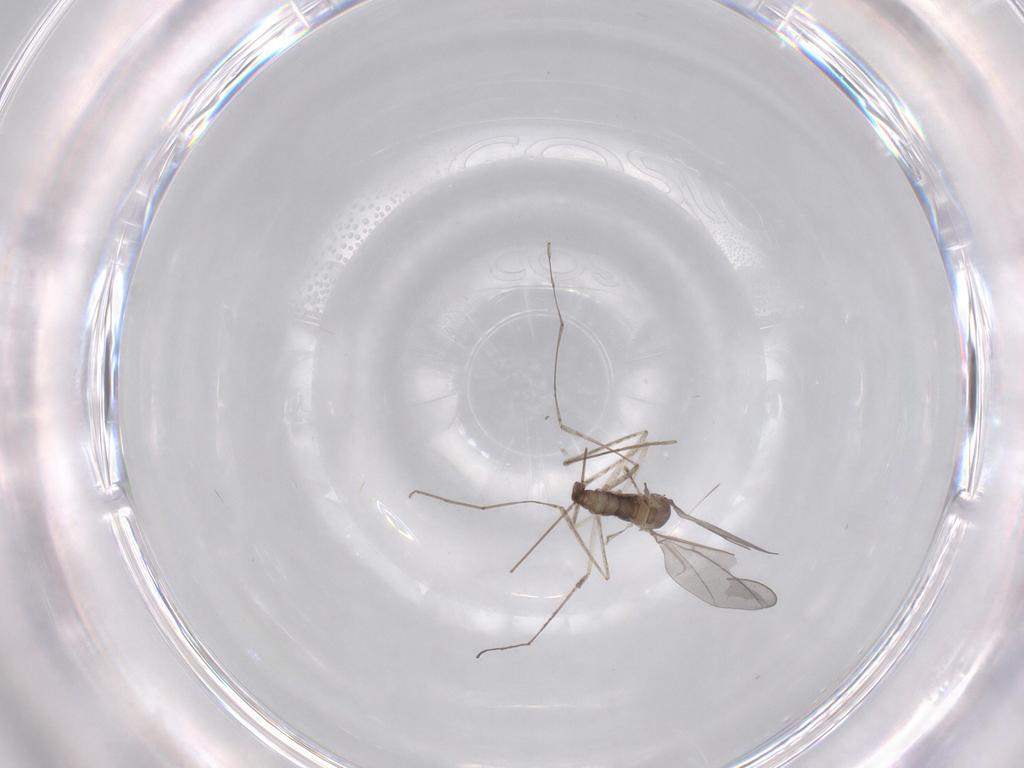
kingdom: Animalia
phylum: Arthropoda
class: Insecta
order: Diptera
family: Cecidomyiidae
